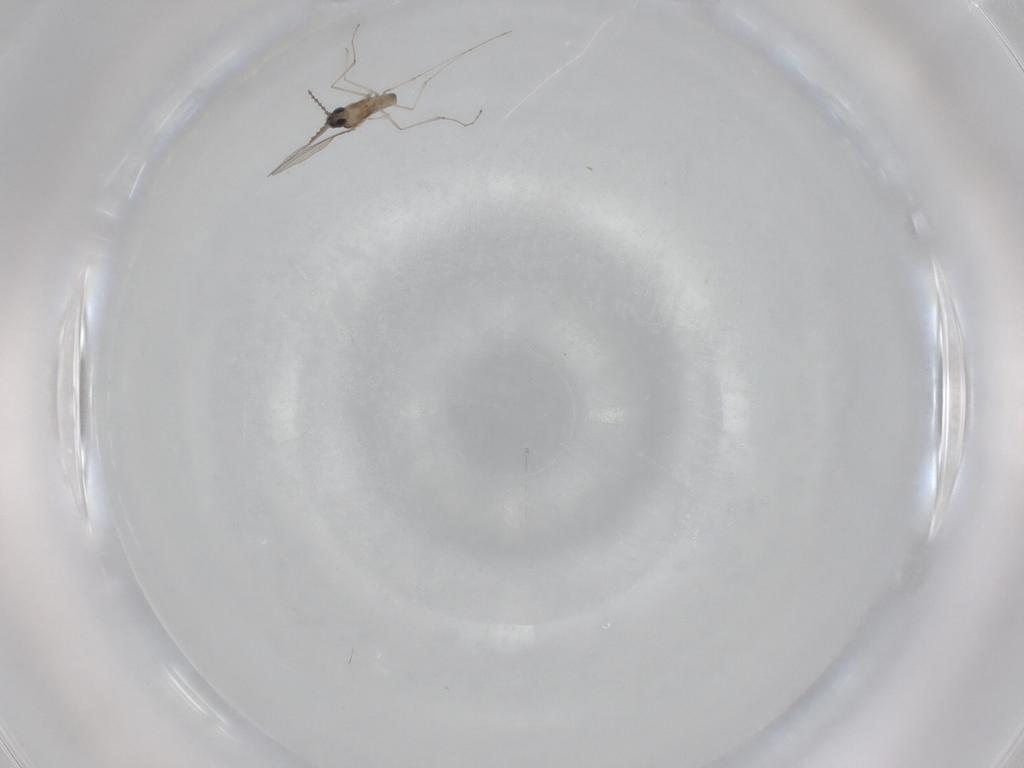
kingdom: Animalia
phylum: Arthropoda
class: Insecta
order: Diptera
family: Cecidomyiidae
